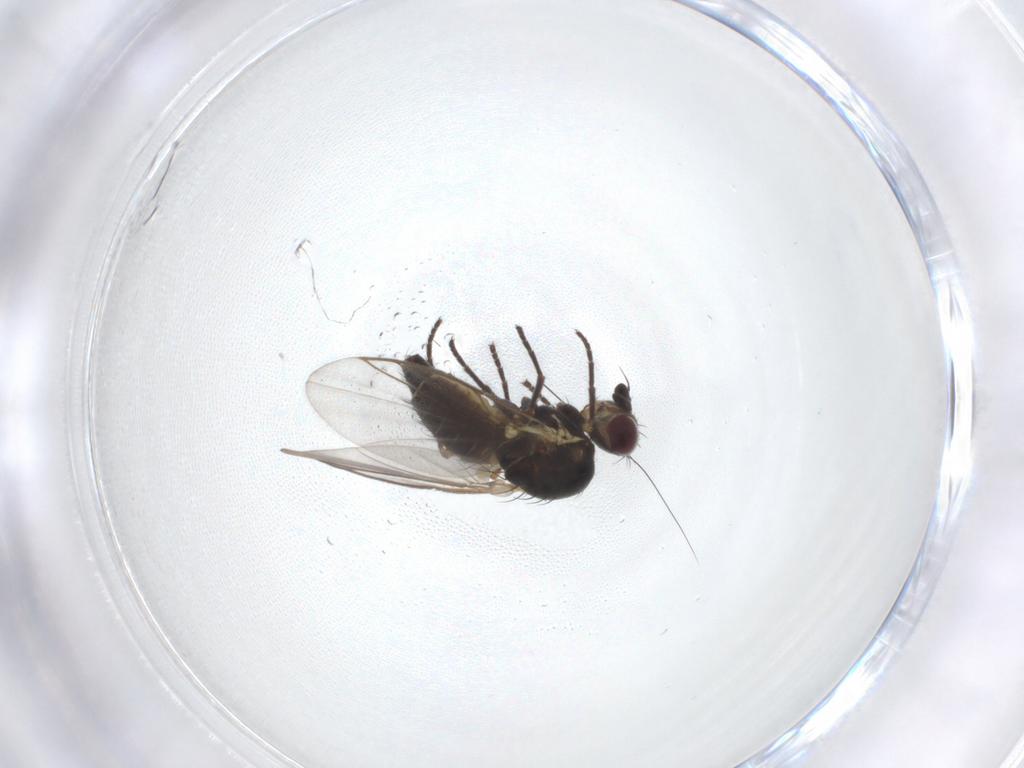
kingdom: Animalia
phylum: Arthropoda
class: Insecta
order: Diptera
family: Agromyzidae
